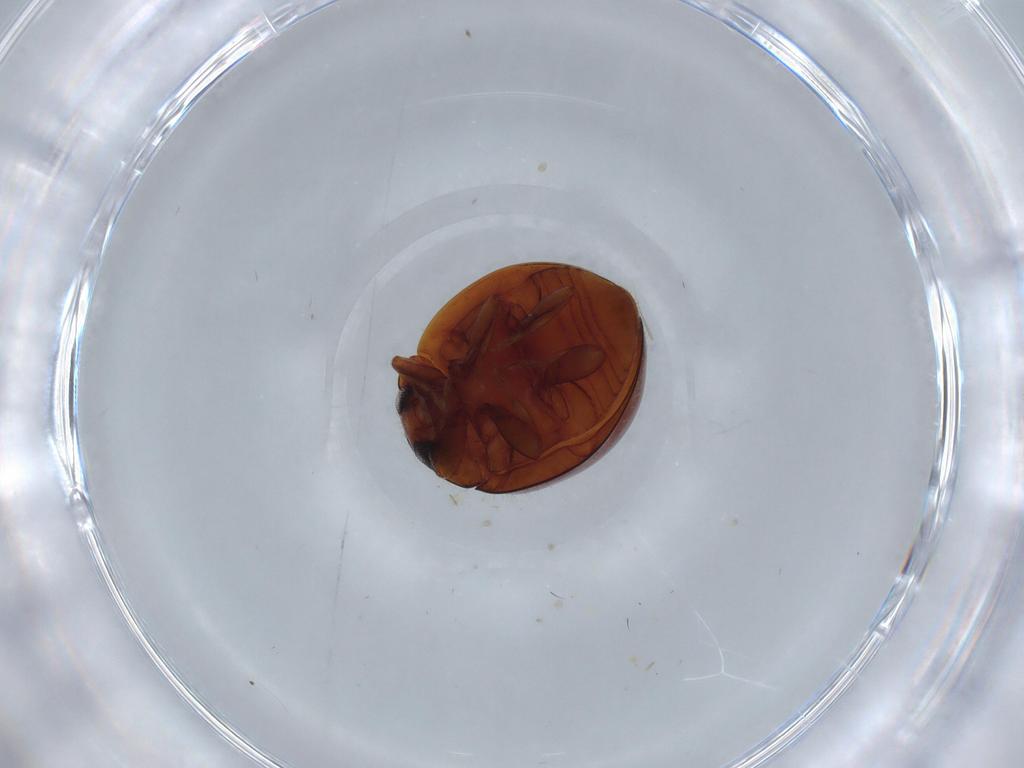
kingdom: Animalia
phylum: Arthropoda
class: Insecta
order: Coleoptera
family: Coccinellidae
